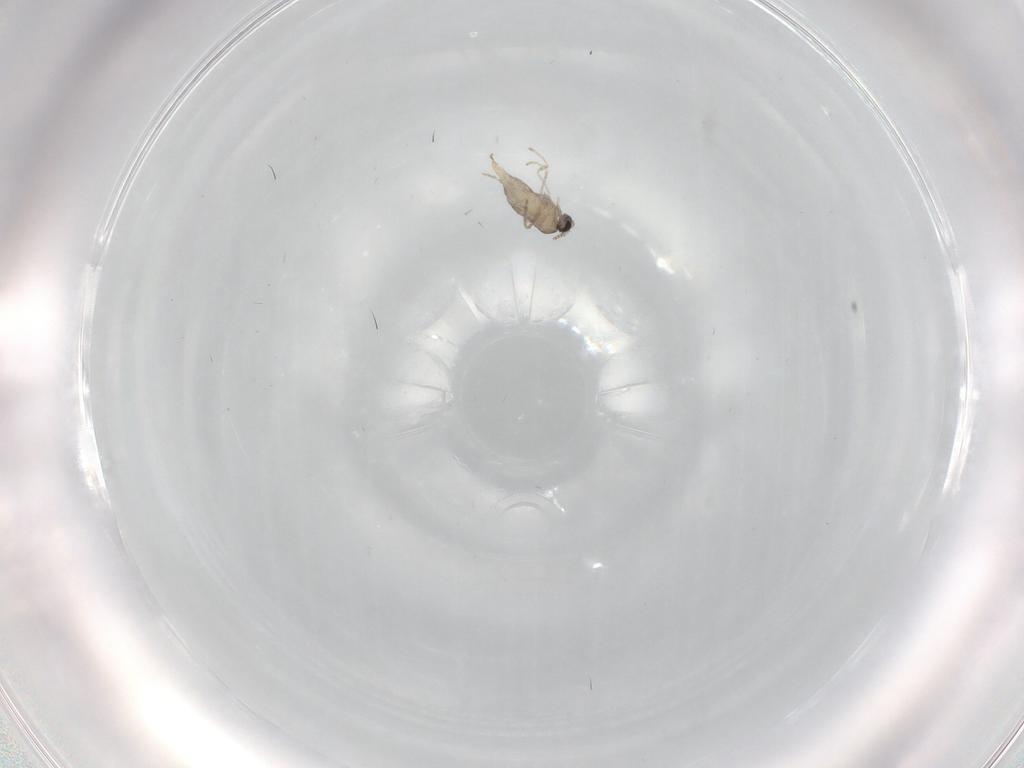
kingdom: Animalia
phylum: Arthropoda
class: Insecta
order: Diptera
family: Cecidomyiidae
